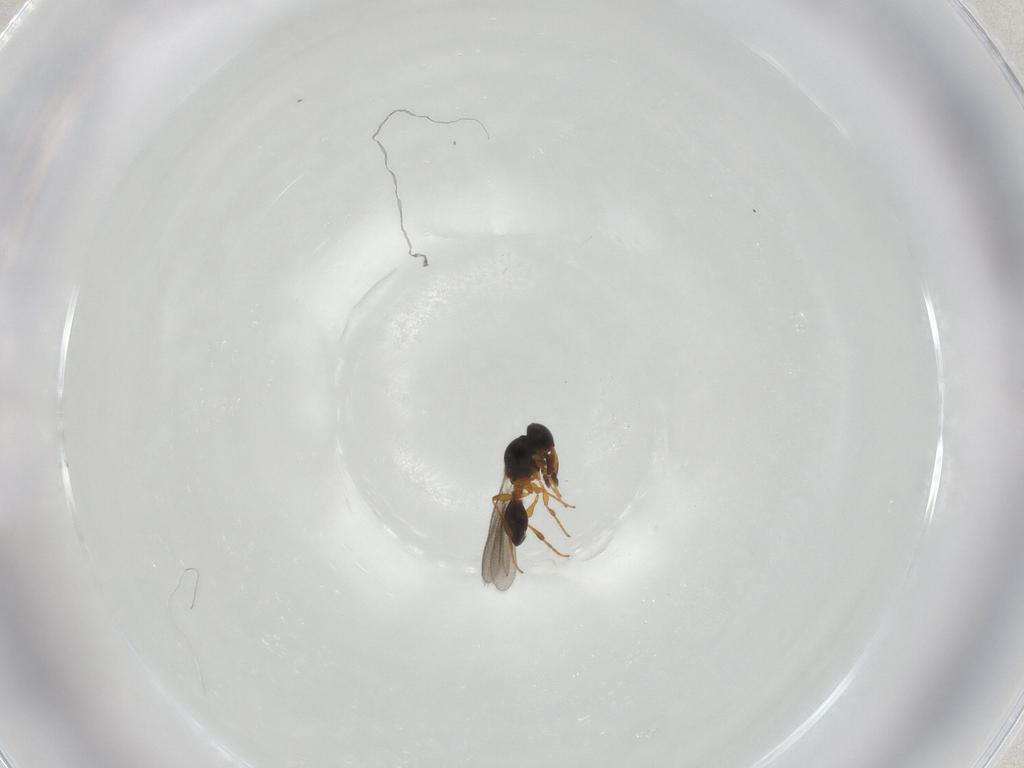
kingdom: Animalia
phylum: Arthropoda
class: Insecta
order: Hymenoptera
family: Platygastridae
